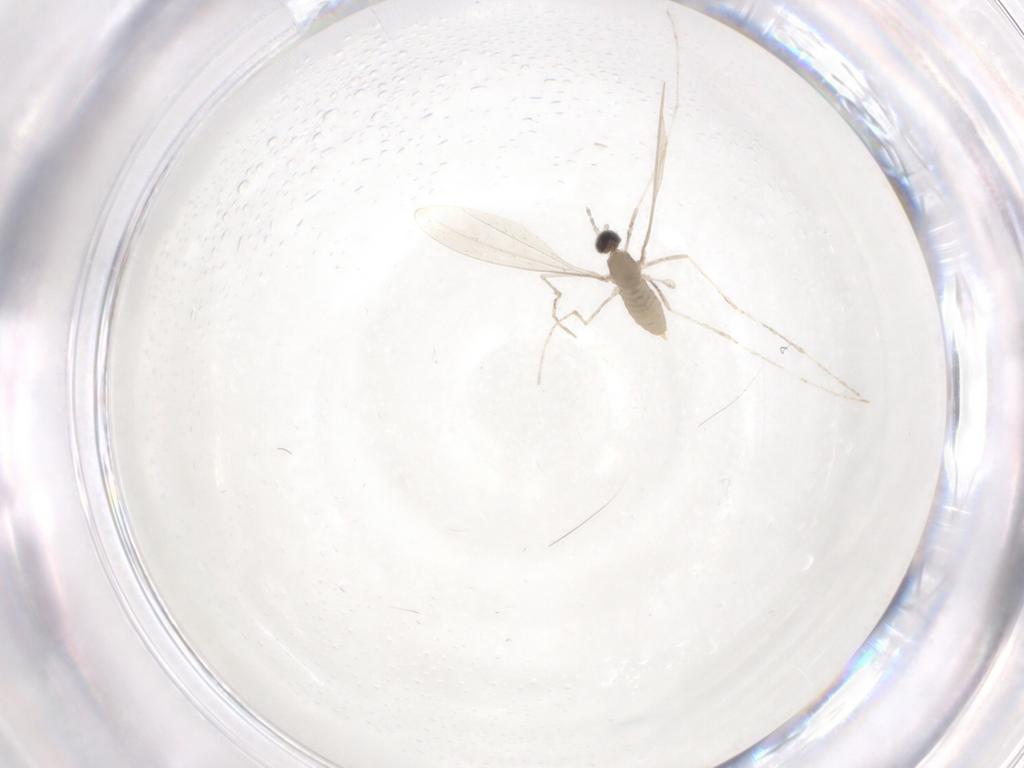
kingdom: Animalia
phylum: Arthropoda
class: Insecta
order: Diptera
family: Cecidomyiidae
